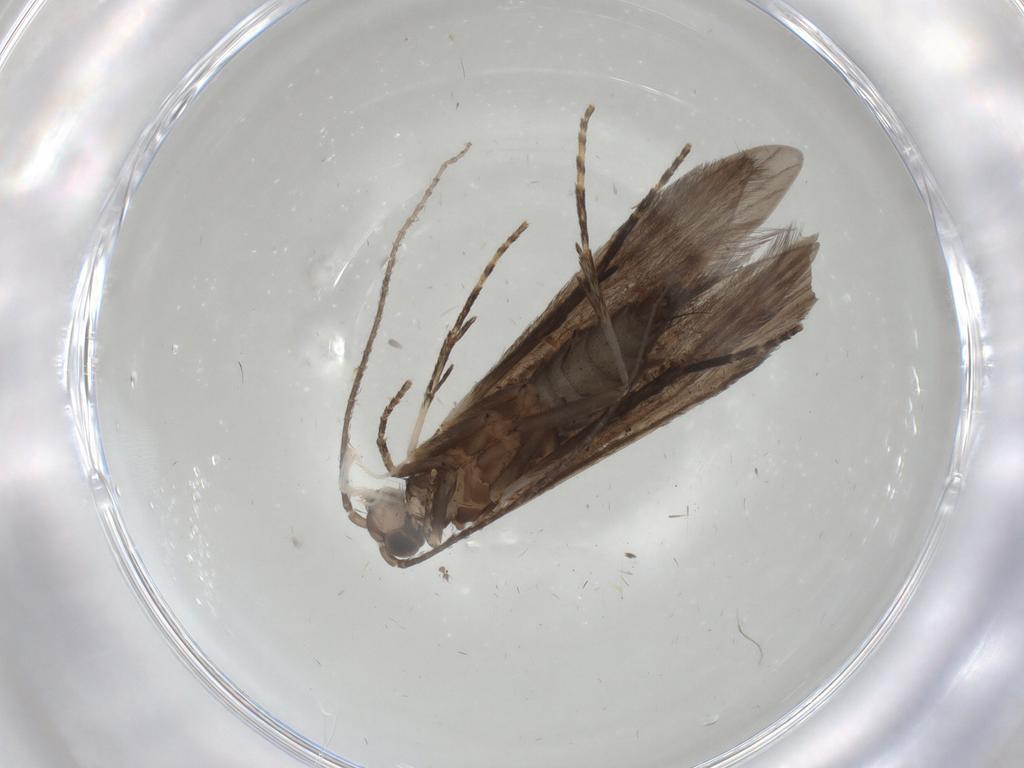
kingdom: Animalia
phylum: Arthropoda
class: Insecta
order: Trichoptera
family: Xiphocentronidae
